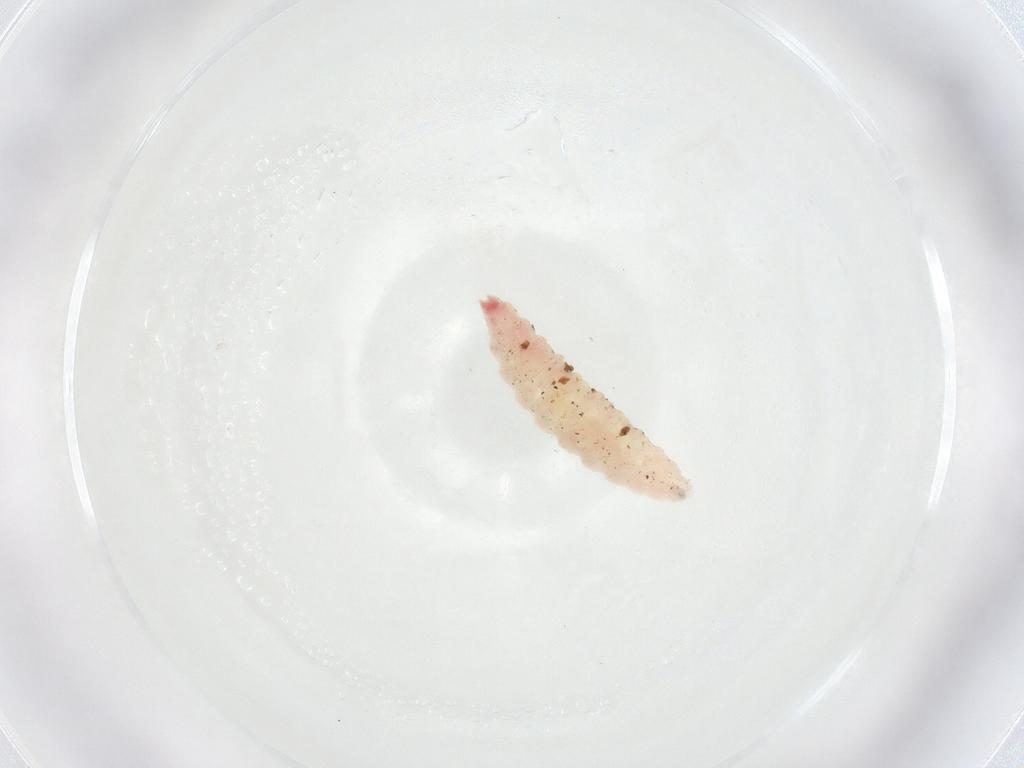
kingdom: Animalia
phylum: Arthropoda
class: Insecta
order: Diptera
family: Chironomidae
